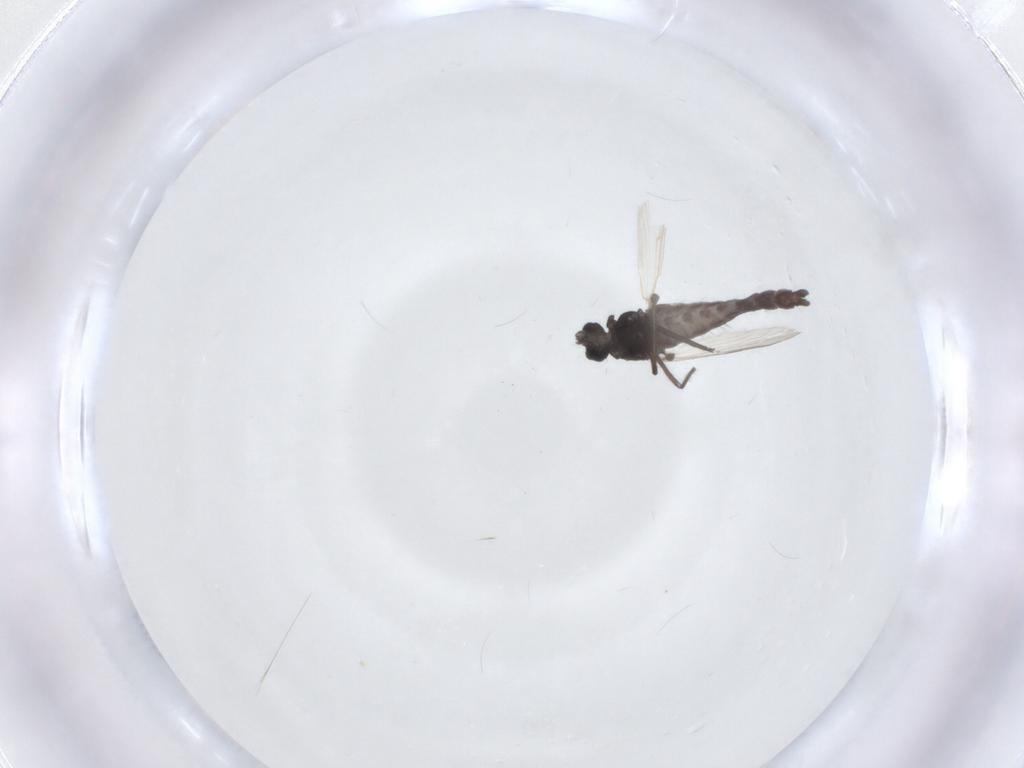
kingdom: Animalia
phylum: Arthropoda
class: Insecta
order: Diptera
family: Chironomidae
